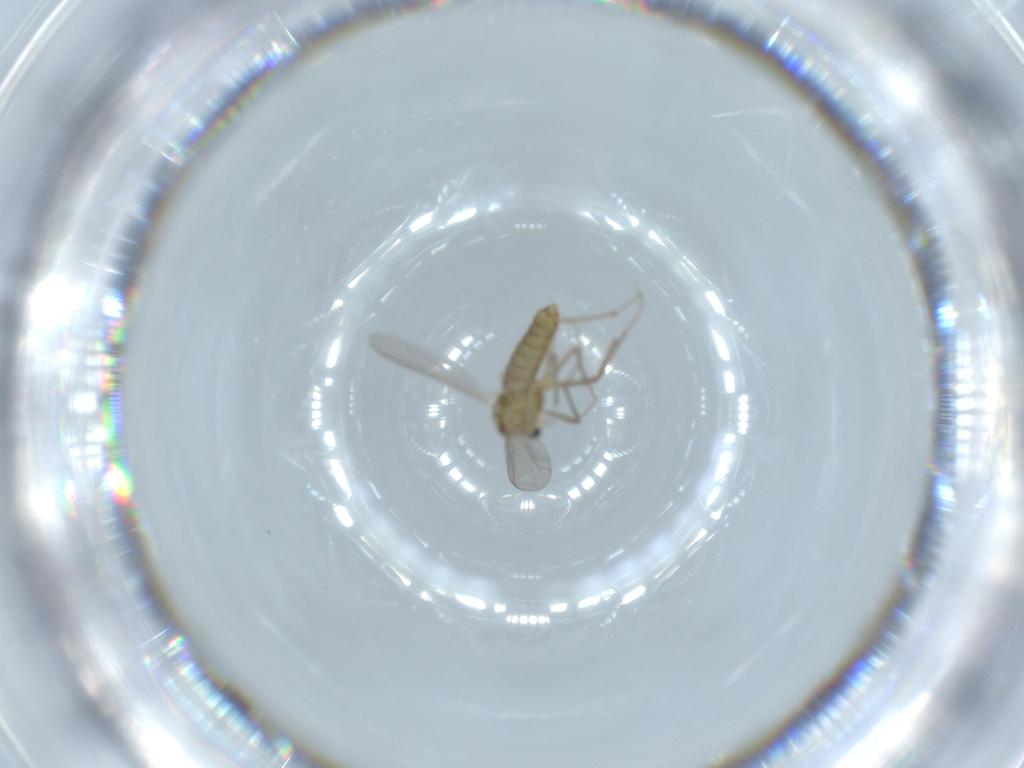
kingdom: Animalia
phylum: Arthropoda
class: Insecta
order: Diptera
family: Chironomidae
